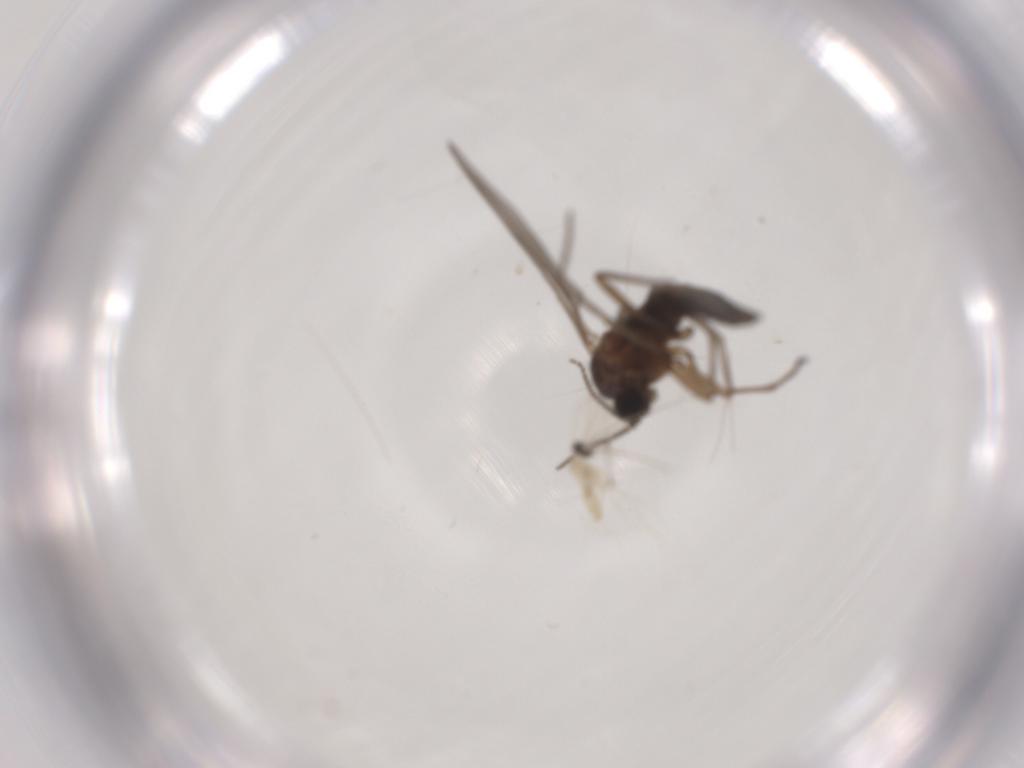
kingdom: Animalia
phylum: Arthropoda
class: Insecta
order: Diptera
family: Sciaridae
